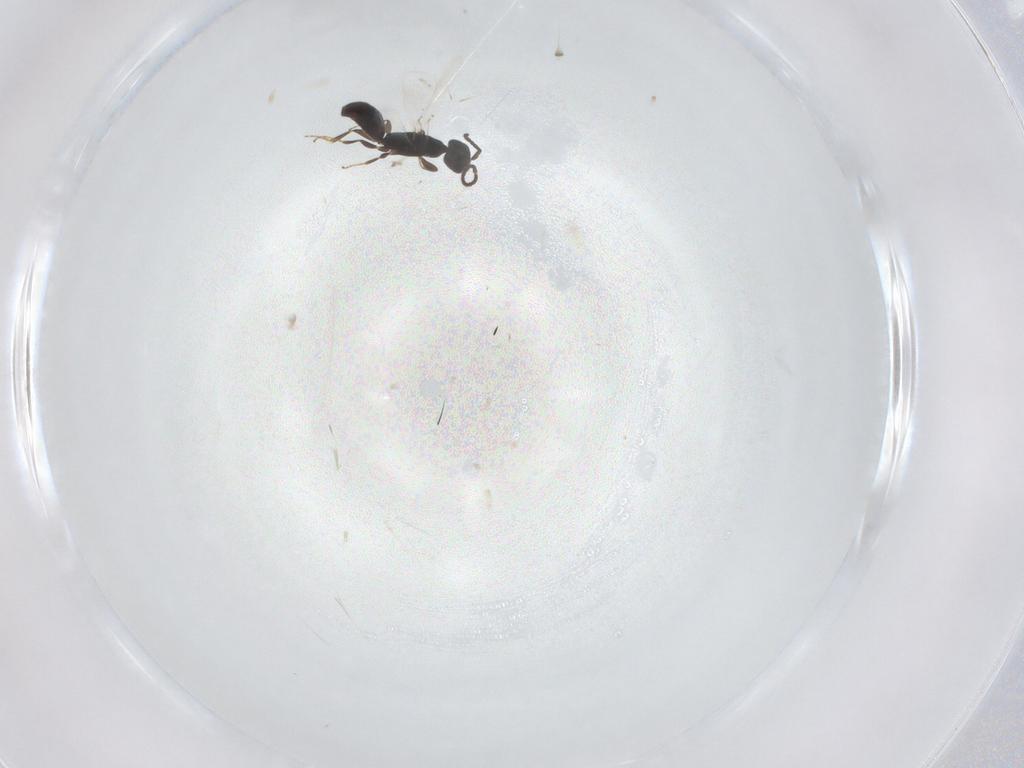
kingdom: Animalia
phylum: Arthropoda
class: Insecta
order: Hymenoptera
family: Bethylidae
